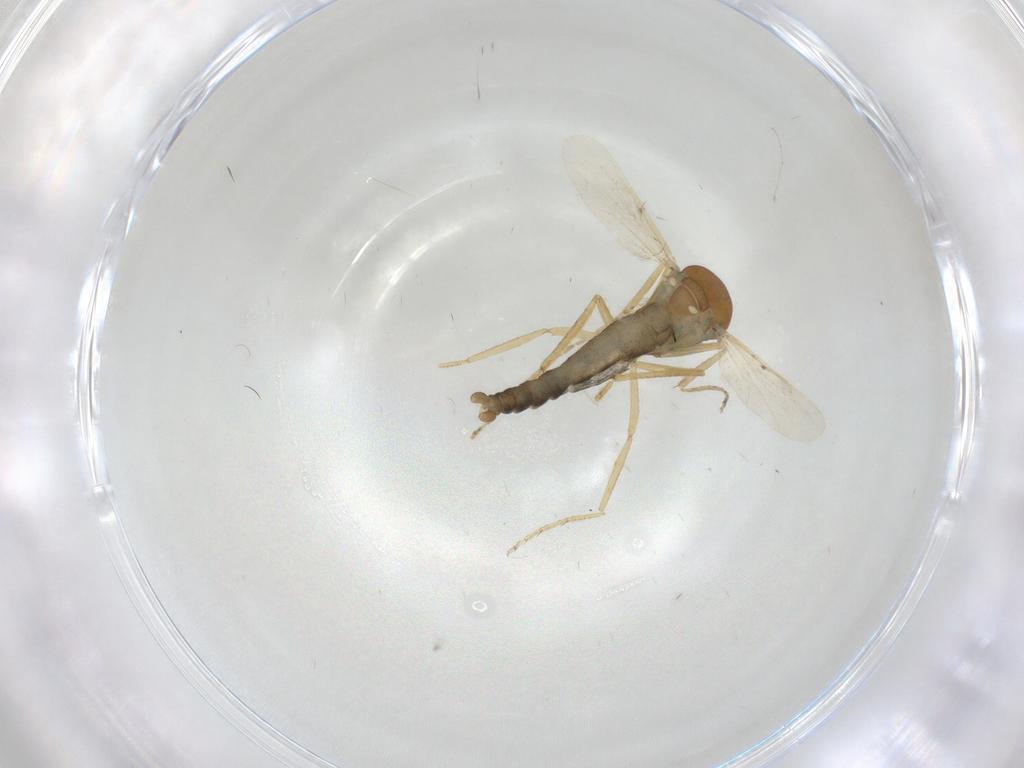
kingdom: Animalia
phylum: Arthropoda
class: Insecta
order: Diptera
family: Ceratopogonidae
